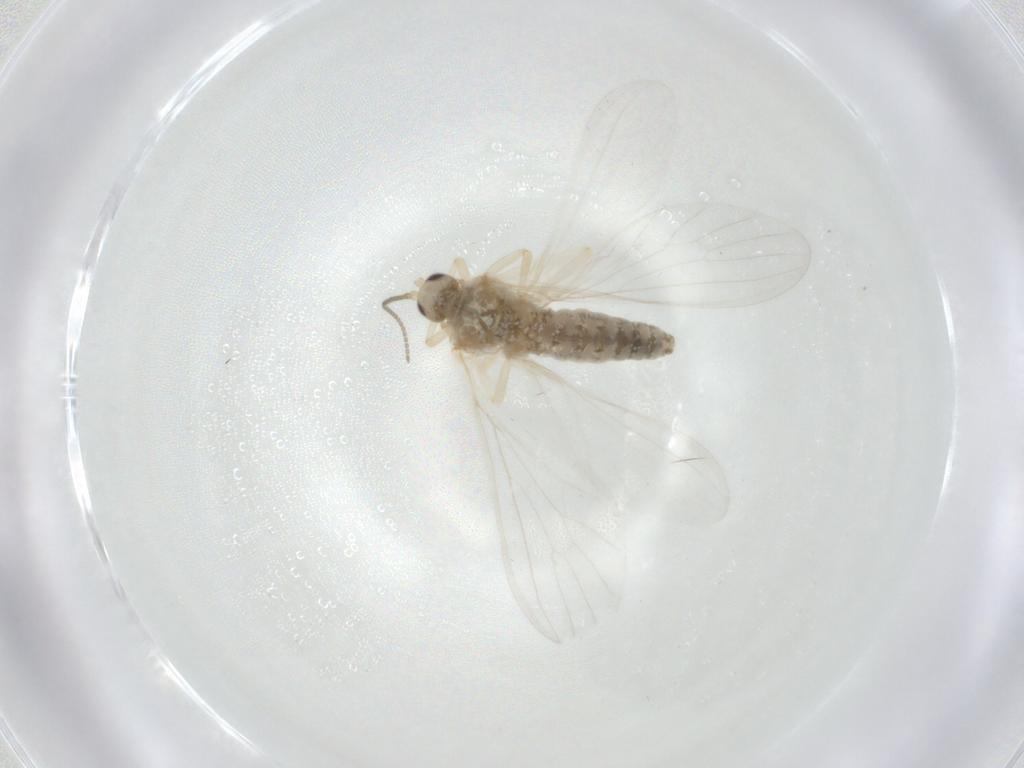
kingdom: Animalia
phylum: Arthropoda
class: Insecta
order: Neuroptera
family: Coniopterygidae
